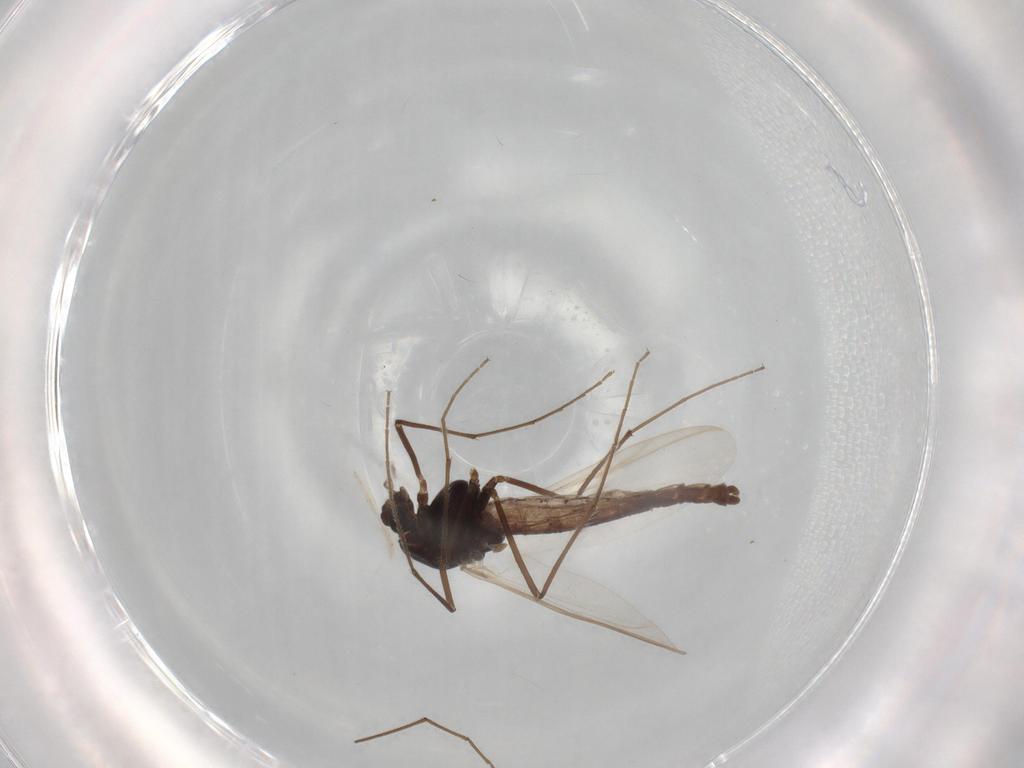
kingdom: Animalia
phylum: Arthropoda
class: Insecta
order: Diptera
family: Limoniidae
